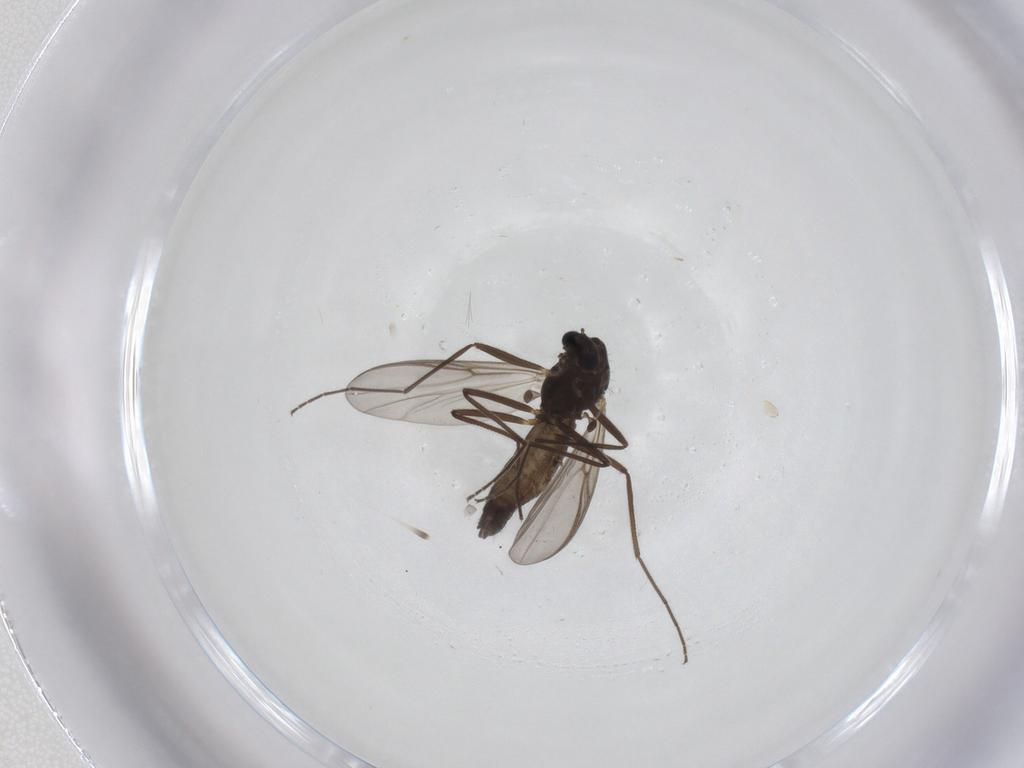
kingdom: Animalia
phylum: Arthropoda
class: Insecta
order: Diptera
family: Chironomidae
